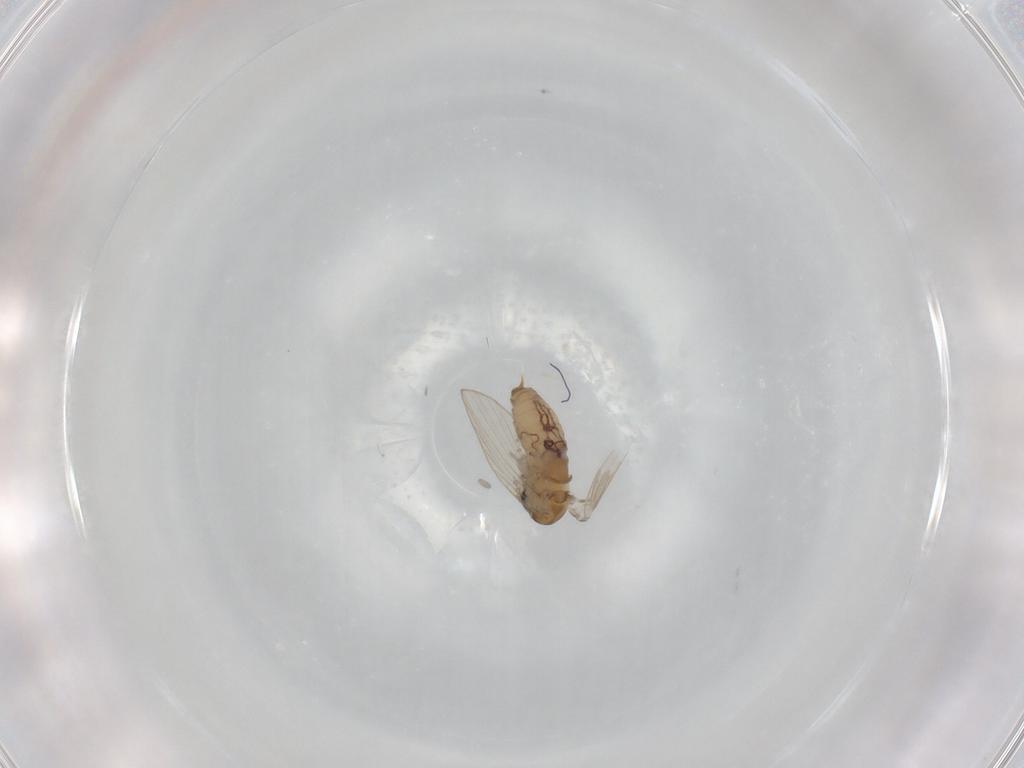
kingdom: Animalia
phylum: Arthropoda
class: Insecta
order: Diptera
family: Psychodidae
